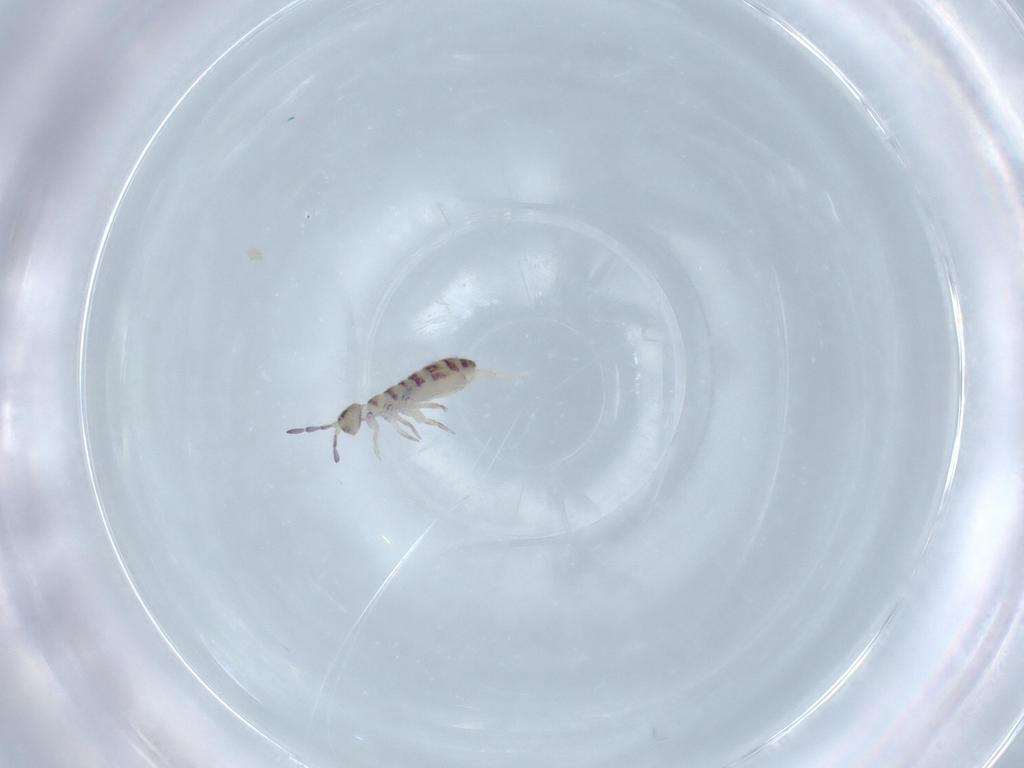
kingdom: Animalia
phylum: Arthropoda
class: Collembola
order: Entomobryomorpha
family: Isotomidae
